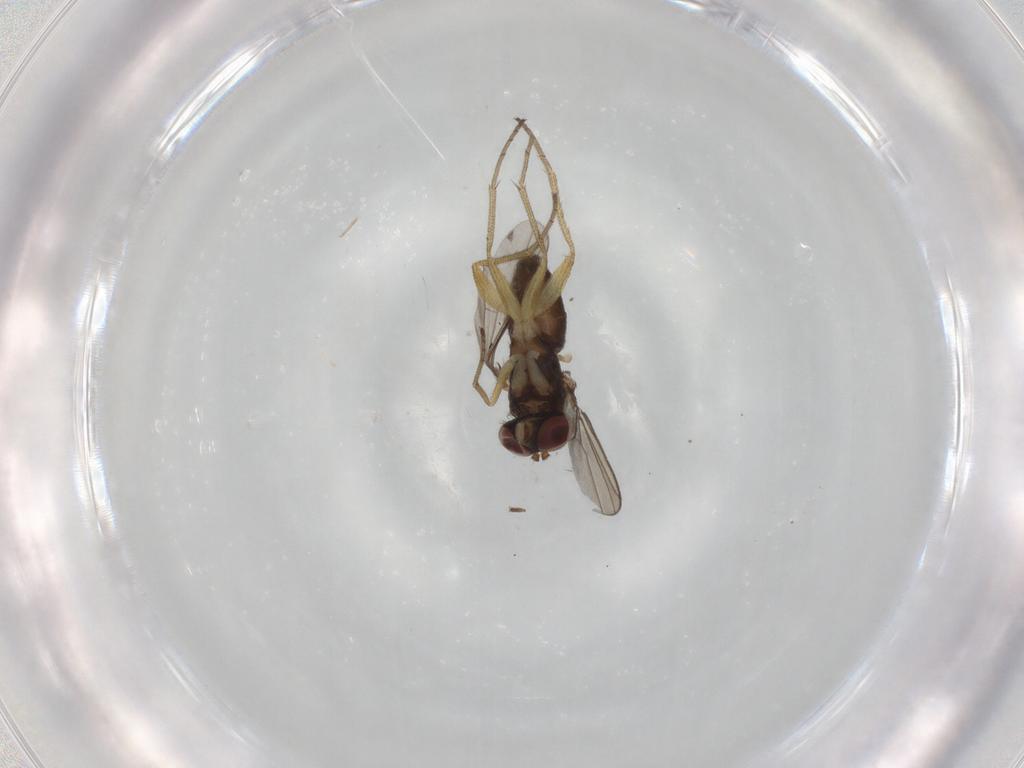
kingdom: Animalia
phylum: Arthropoda
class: Insecta
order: Diptera
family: Dolichopodidae
